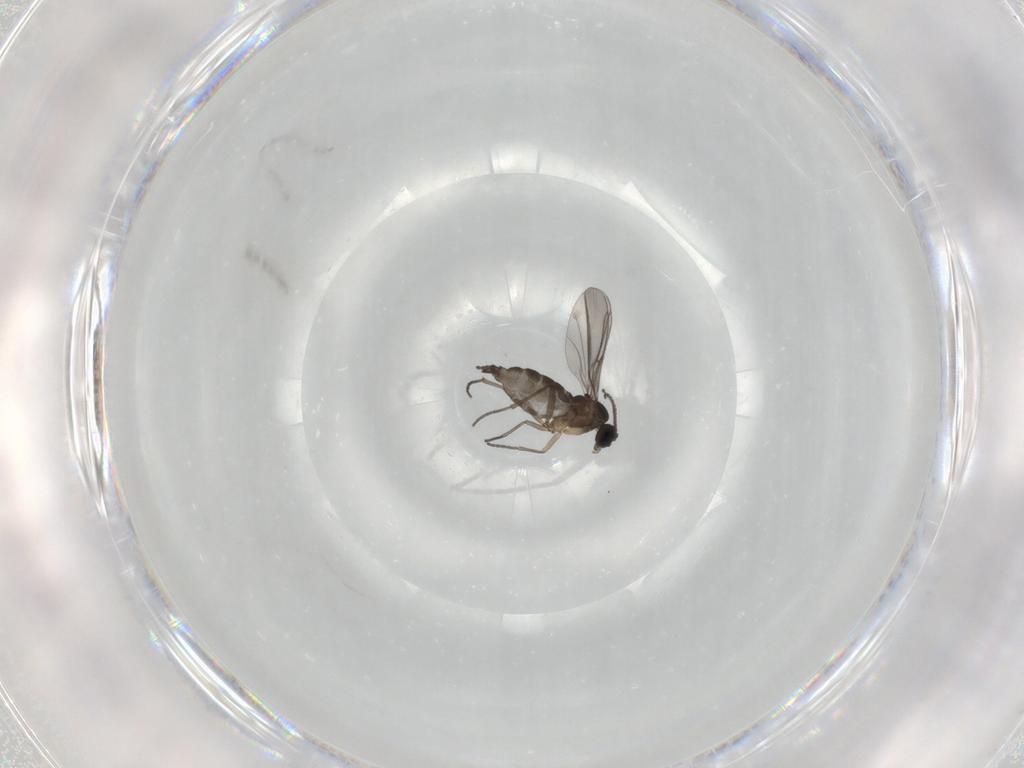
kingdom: Animalia
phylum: Arthropoda
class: Insecta
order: Diptera
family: Sciaridae
